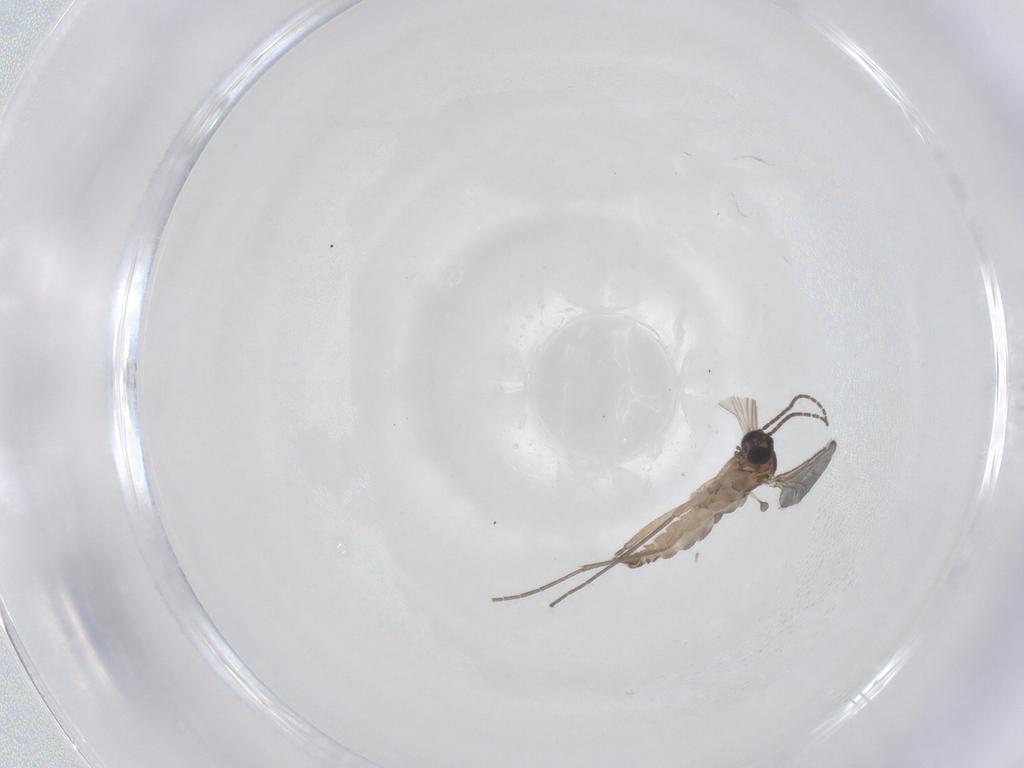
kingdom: Animalia
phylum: Arthropoda
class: Insecta
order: Diptera
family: Sciaridae
